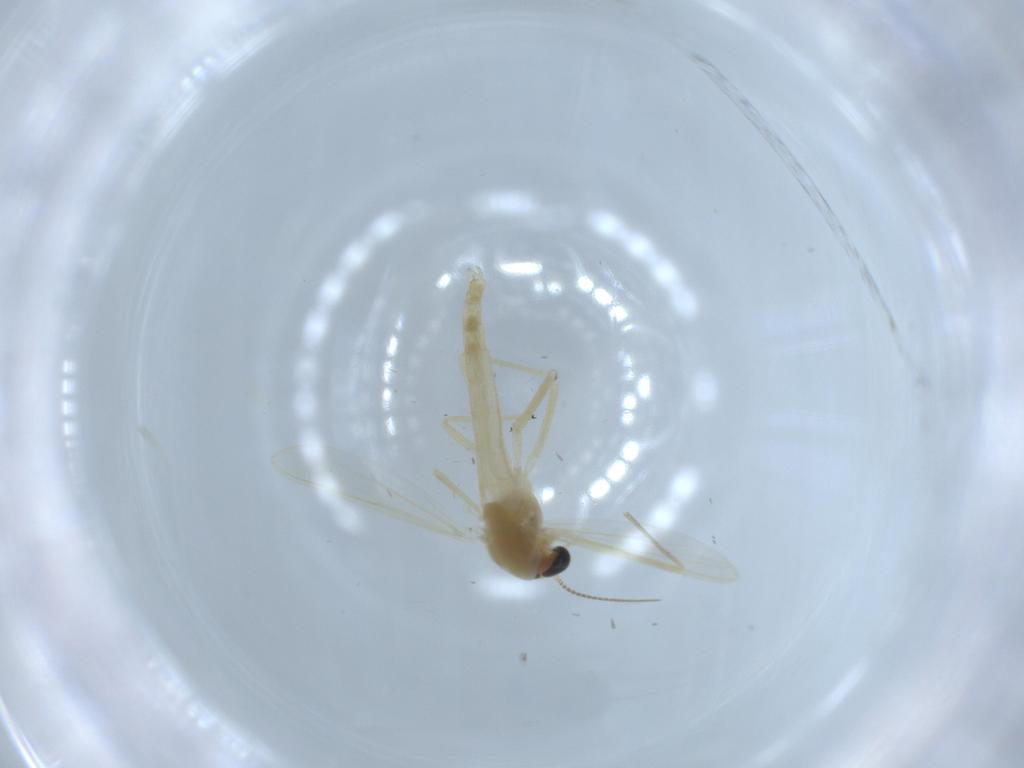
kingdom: Animalia
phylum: Arthropoda
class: Insecta
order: Diptera
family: Chironomidae
